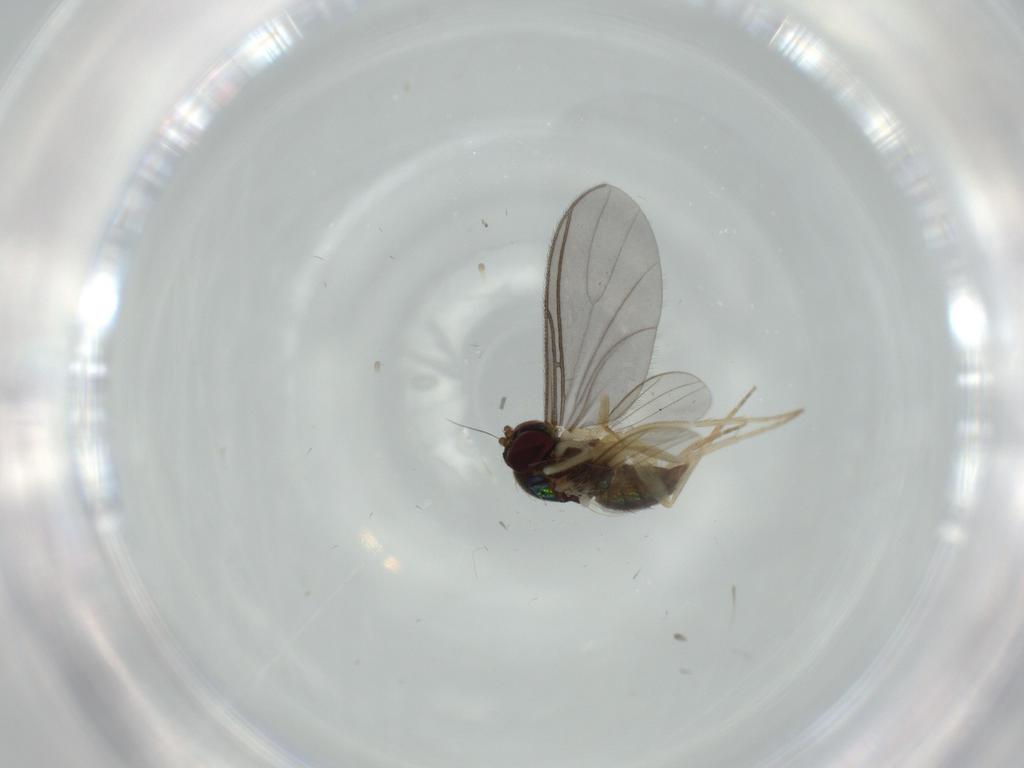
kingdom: Animalia
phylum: Arthropoda
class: Insecta
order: Diptera
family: Dolichopodidae
